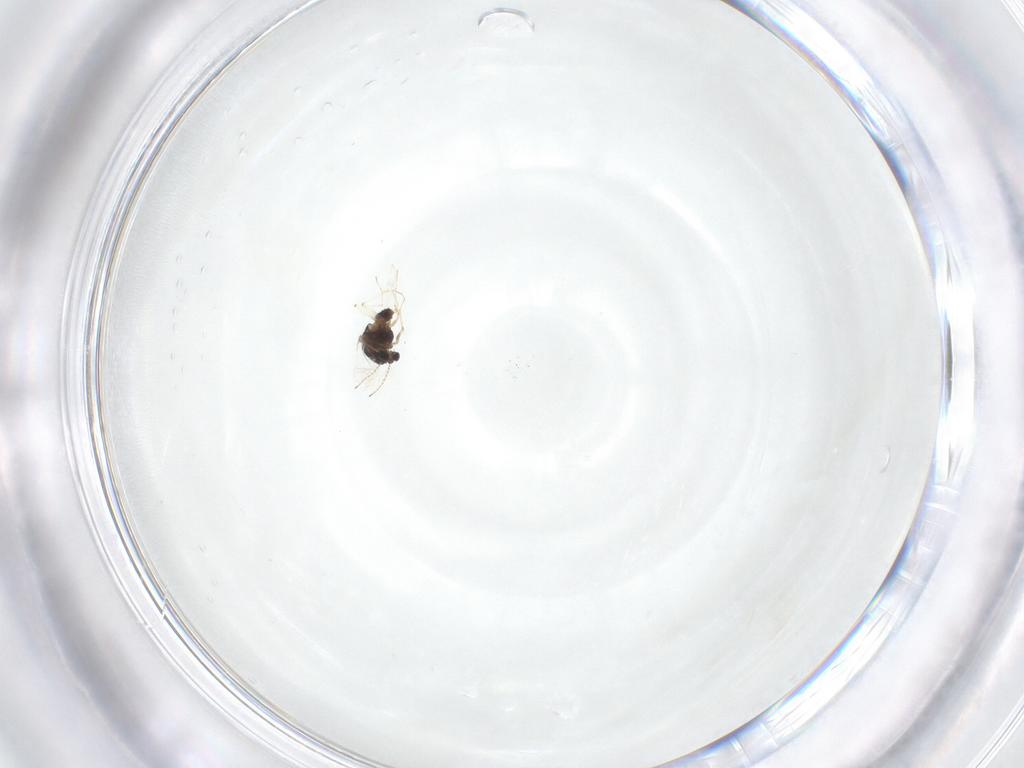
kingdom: Animalia
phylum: Arthropoda
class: Insecta
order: Diptera
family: Chironomidae
